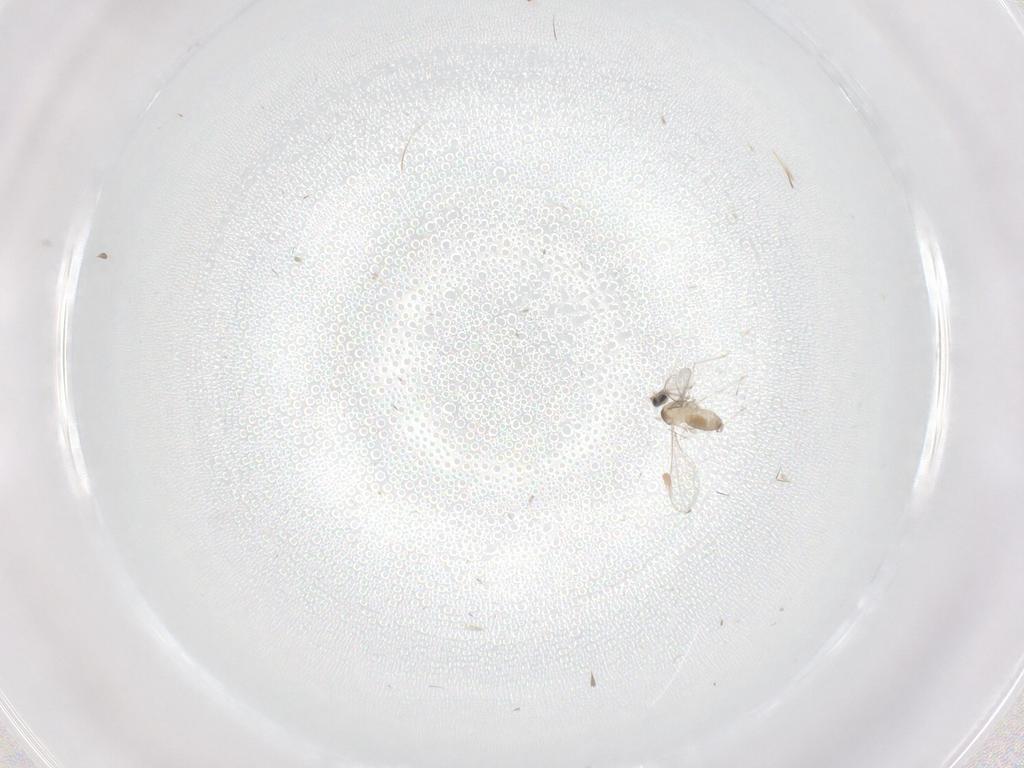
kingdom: Animalia
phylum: Arthropoda
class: Insecta
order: Diptera
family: Cecidomyiidae
